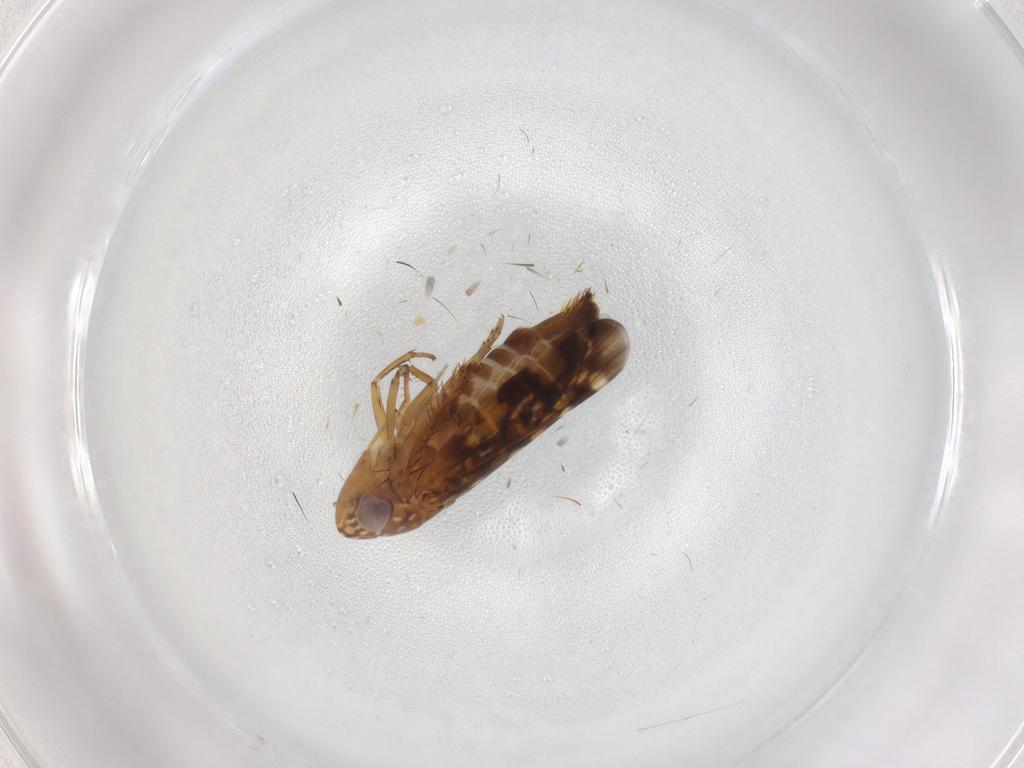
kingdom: Animalia
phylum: Arthropoda
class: Insecta
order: Hemiptera
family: Cicadellidae
